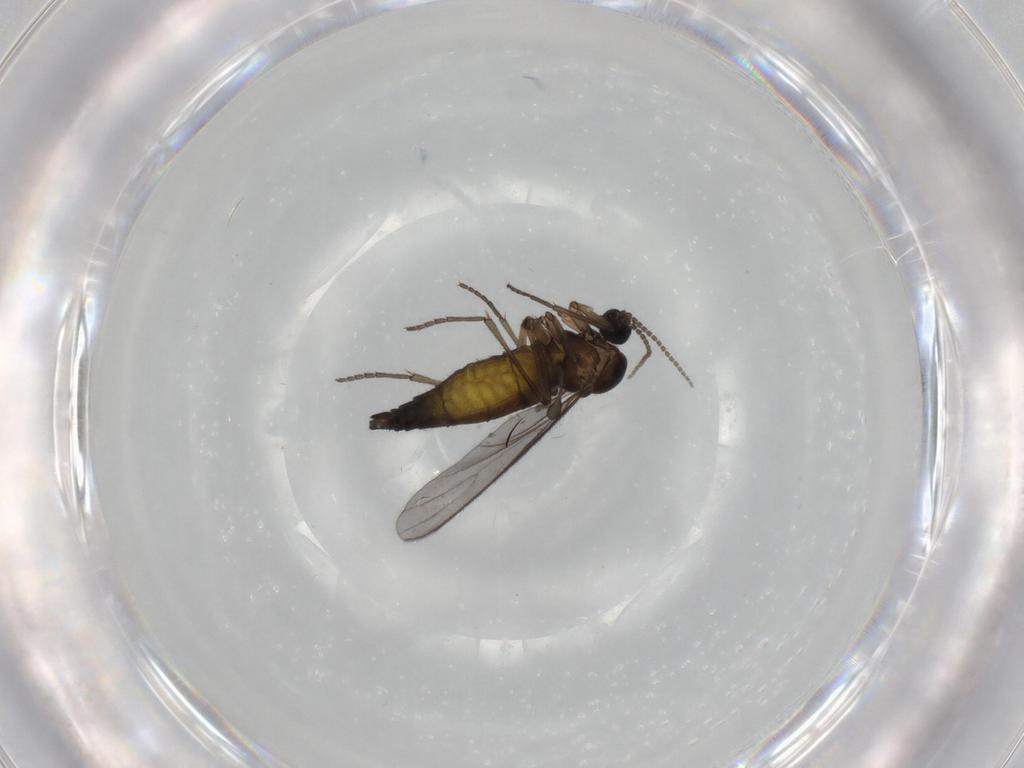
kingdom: Animalia
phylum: Arthropoda
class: Insecta
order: Diptera
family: Sciaridae
